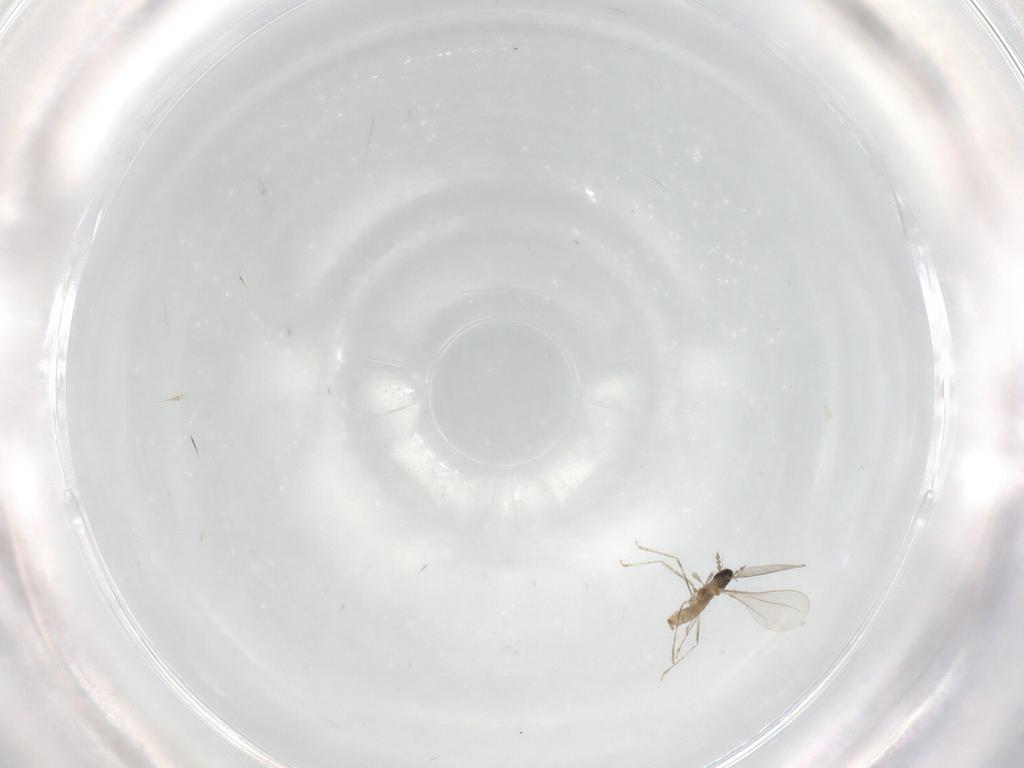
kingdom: Animalia
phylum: Arthropoda
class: Insecta
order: Diptera
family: Cecidomyiidae
